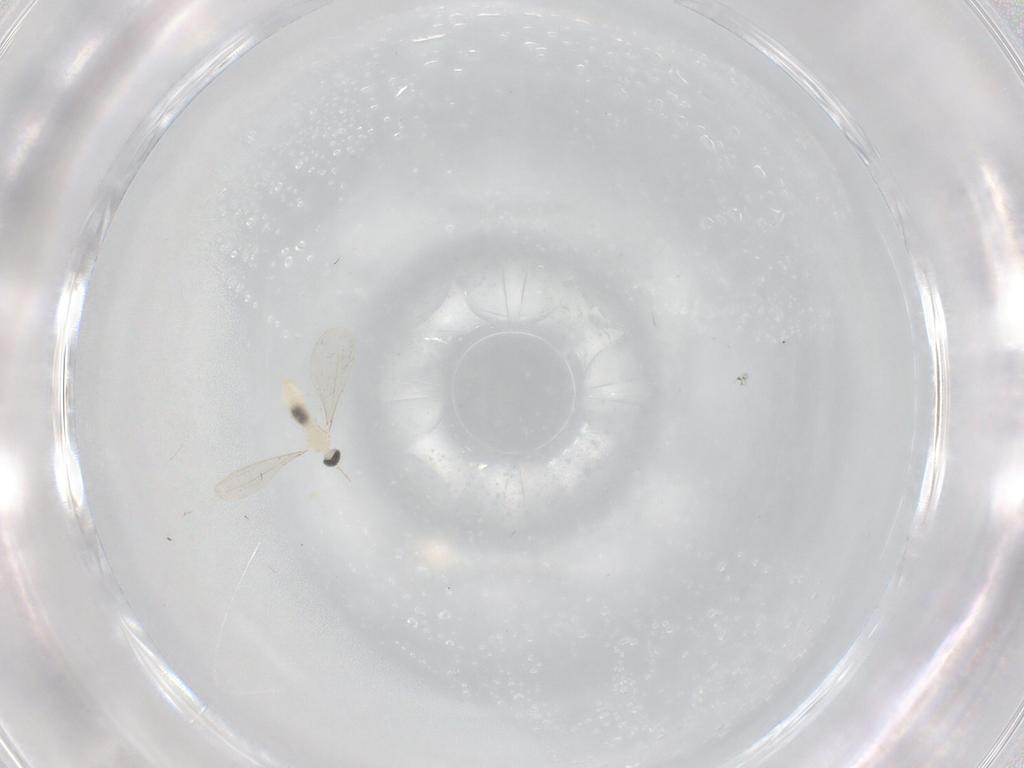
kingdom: Animalia
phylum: Arthropoda
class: Insecta
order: Diptera
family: Cecidomyiidae
